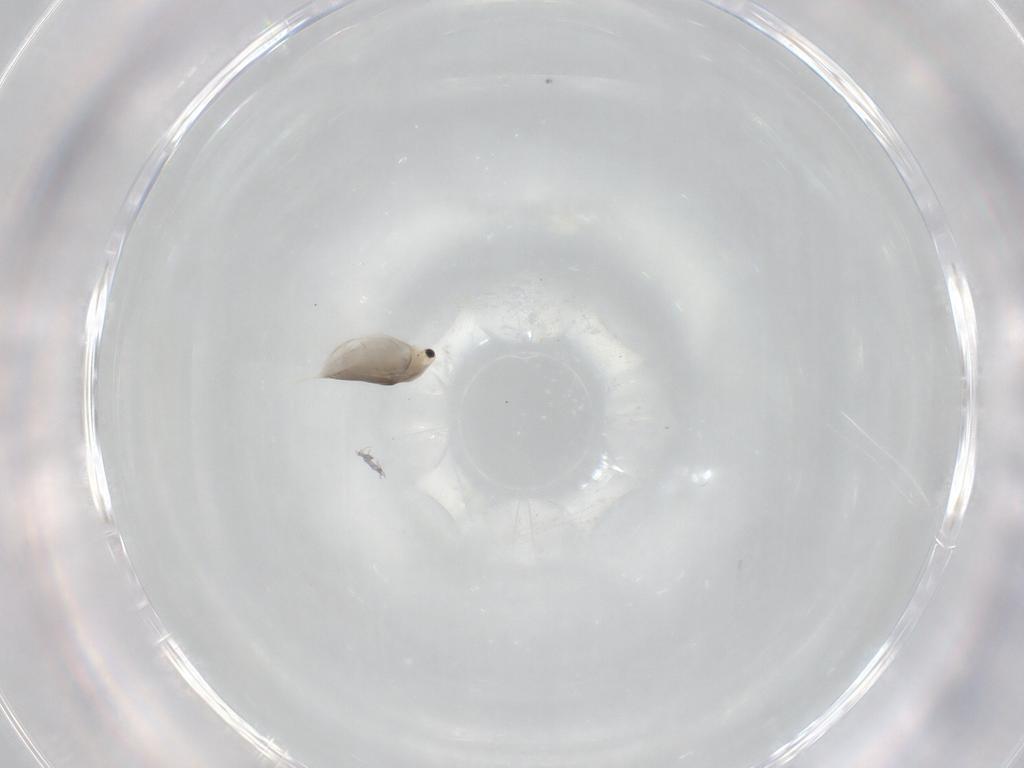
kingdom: Animalia
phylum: Arthropoda
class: Branchiopoda
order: Diplostraca
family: Daphniidae
